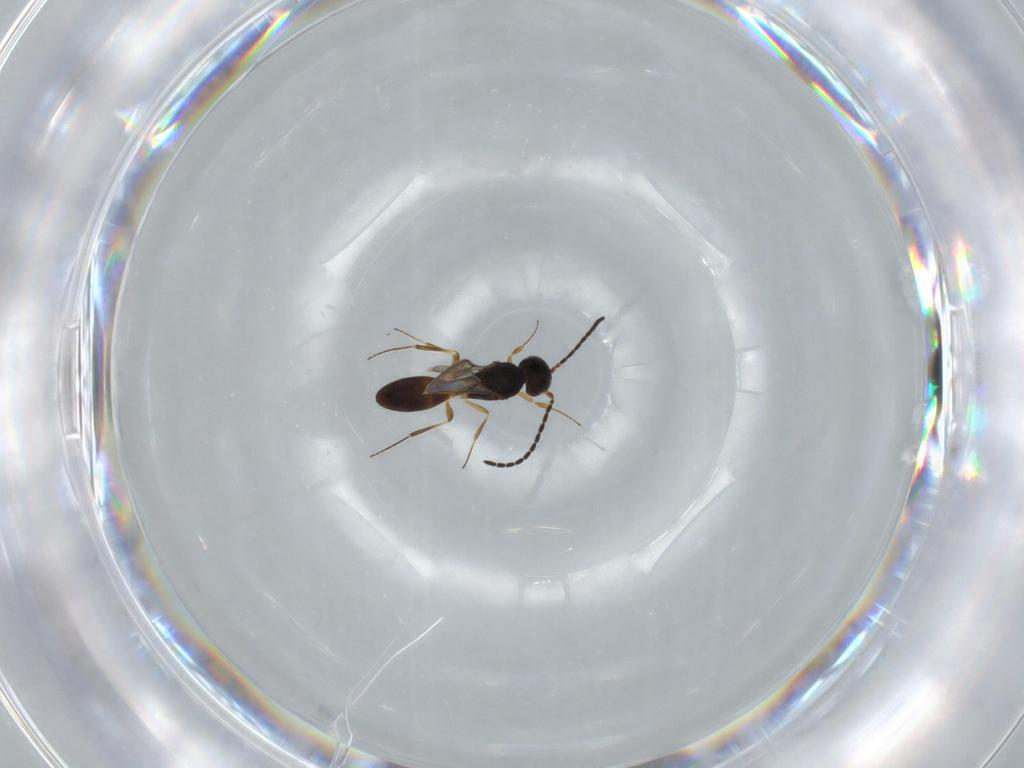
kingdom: Animalia
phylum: Arthropoda
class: Insecta
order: Hymenoptera
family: Scelionidae
